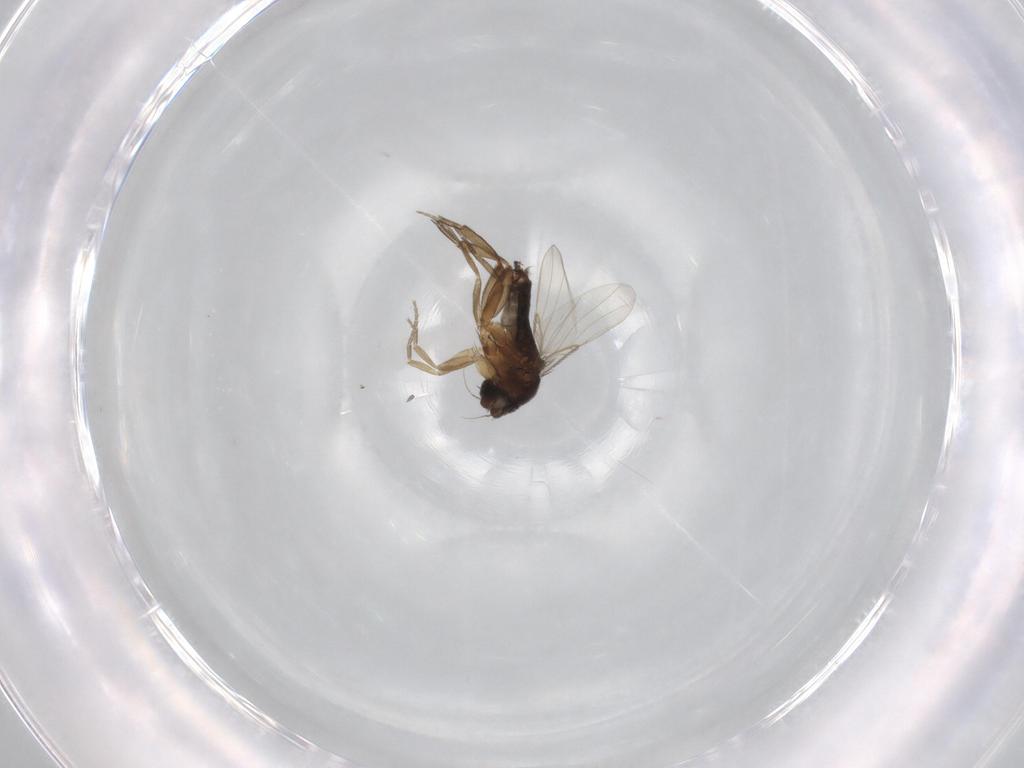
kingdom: Animalia
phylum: Arthropoda
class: Insecta
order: Diptera
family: Phoridae
